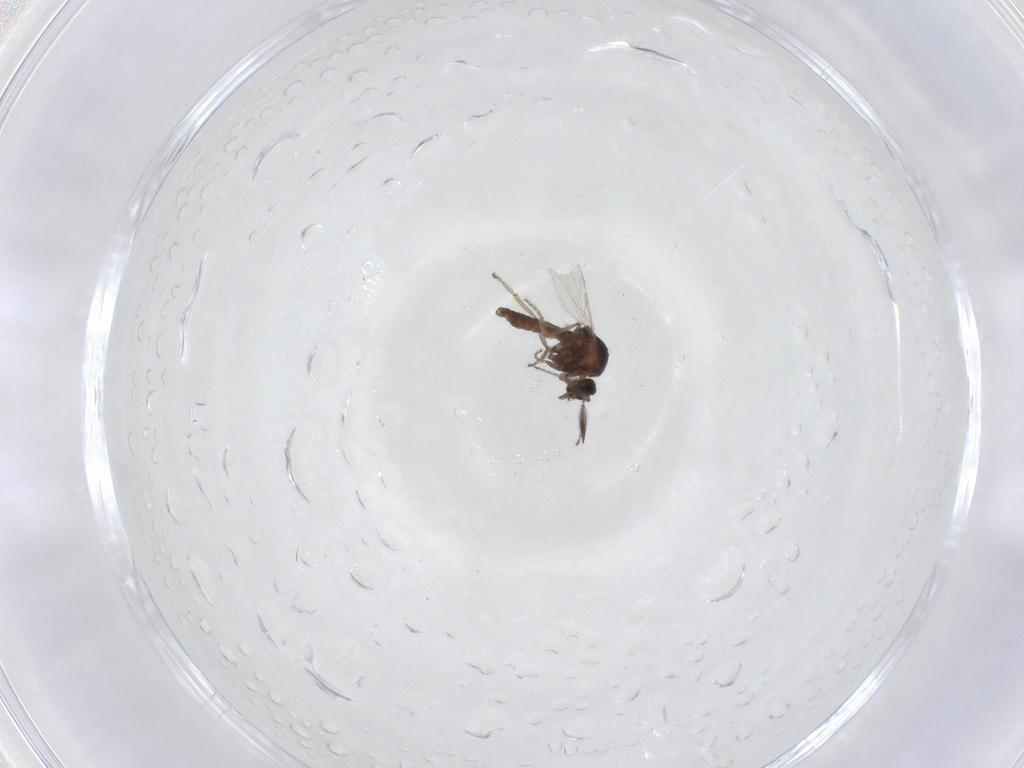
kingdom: Animalia
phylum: Arthropoda
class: Insecta
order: Diptera
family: Ceratopogonidae
